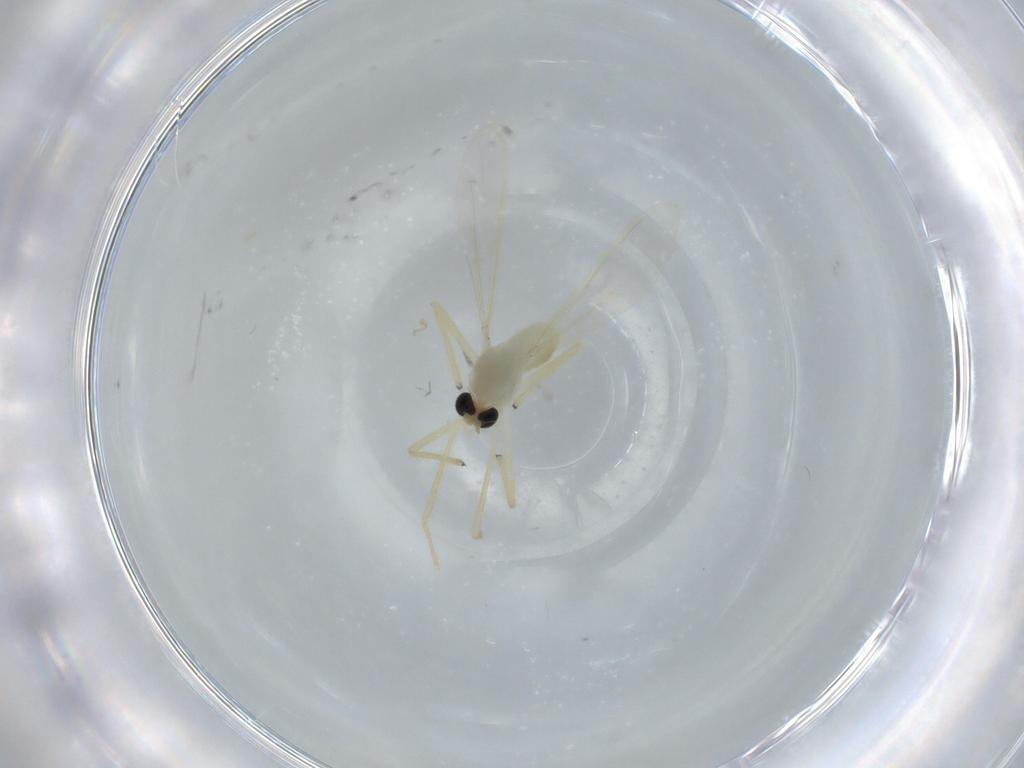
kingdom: Animalia
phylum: Arthropoda
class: Insecta
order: Diptera
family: Chironomidae
